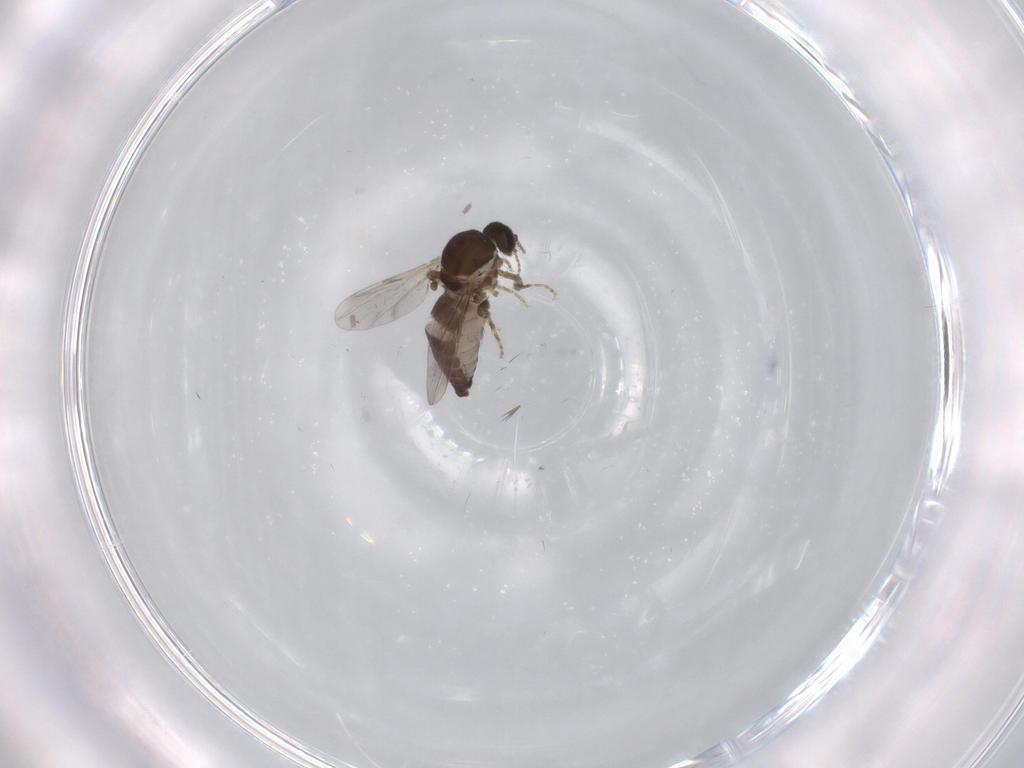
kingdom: Animalia
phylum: Arthropoda
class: Insecta
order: Diptera
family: Ceratopogonidae
